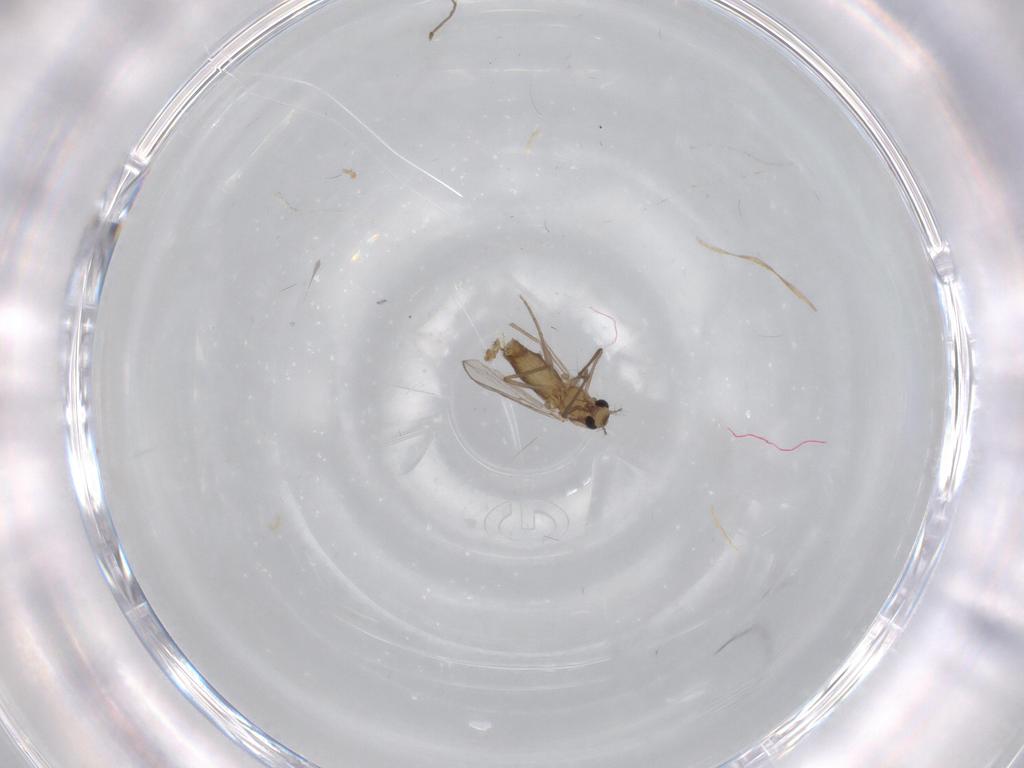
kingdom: Animalia
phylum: Arthropoda
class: Insecta
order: Diptera
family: Chironomidae
